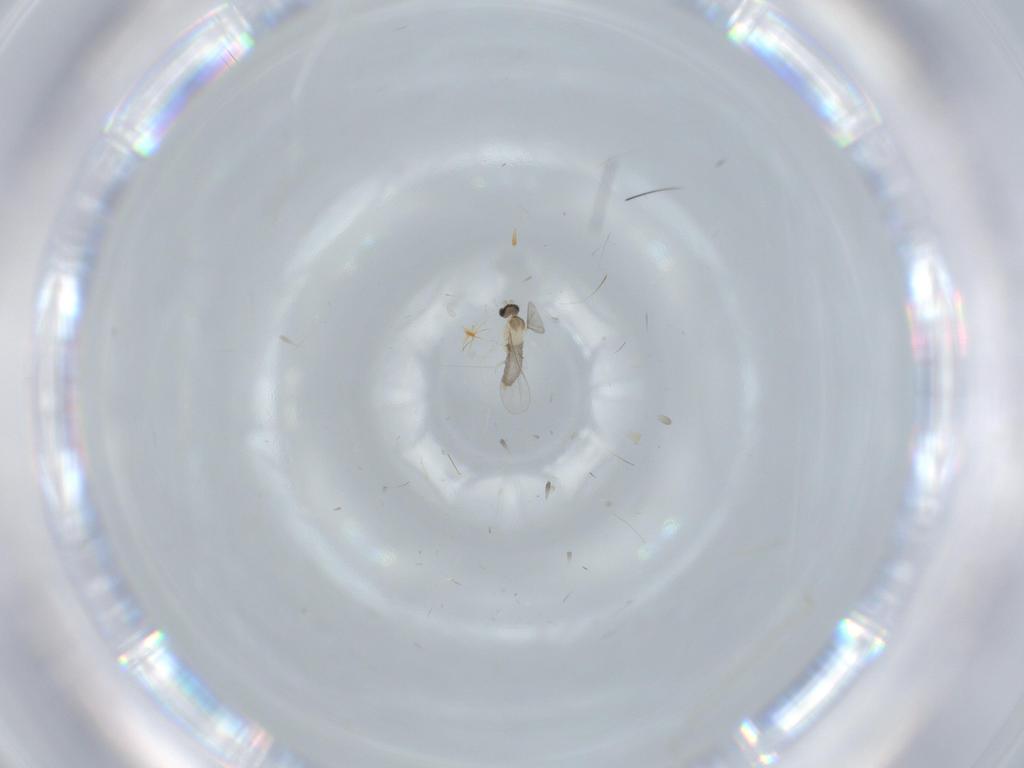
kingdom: Animalia
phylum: Arthropoda
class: Insecta
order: Diptera
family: Tabanidae
